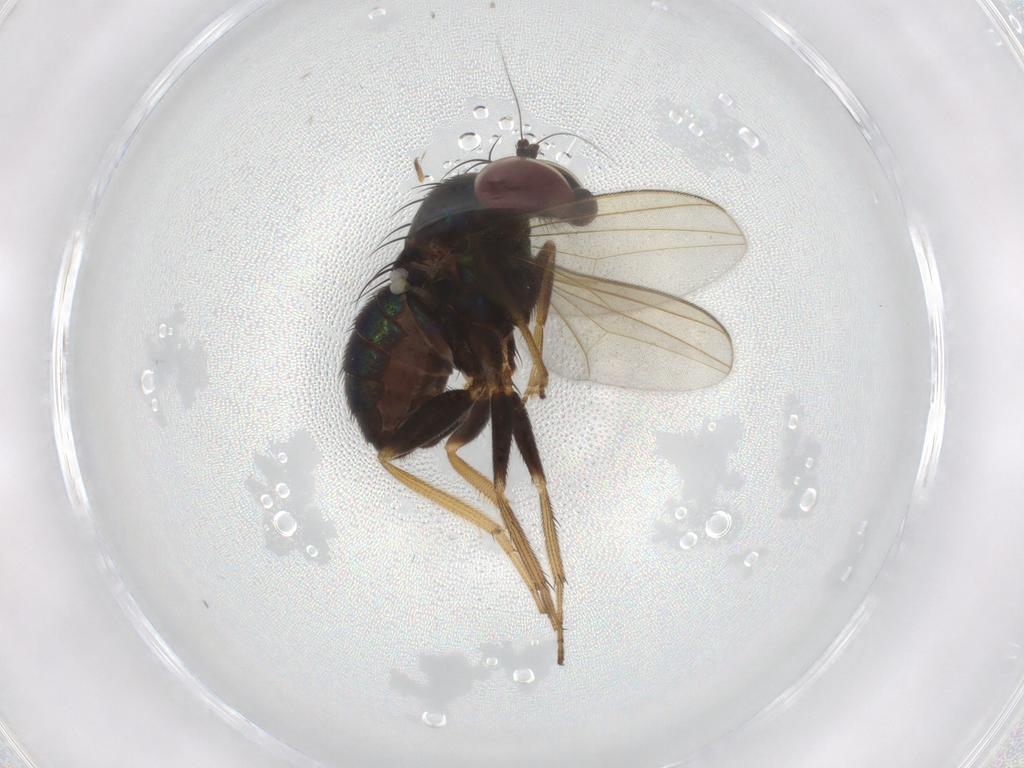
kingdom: Animalia
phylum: Arthropoda
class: Insecta
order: Diptera
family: Dolichopodidae
